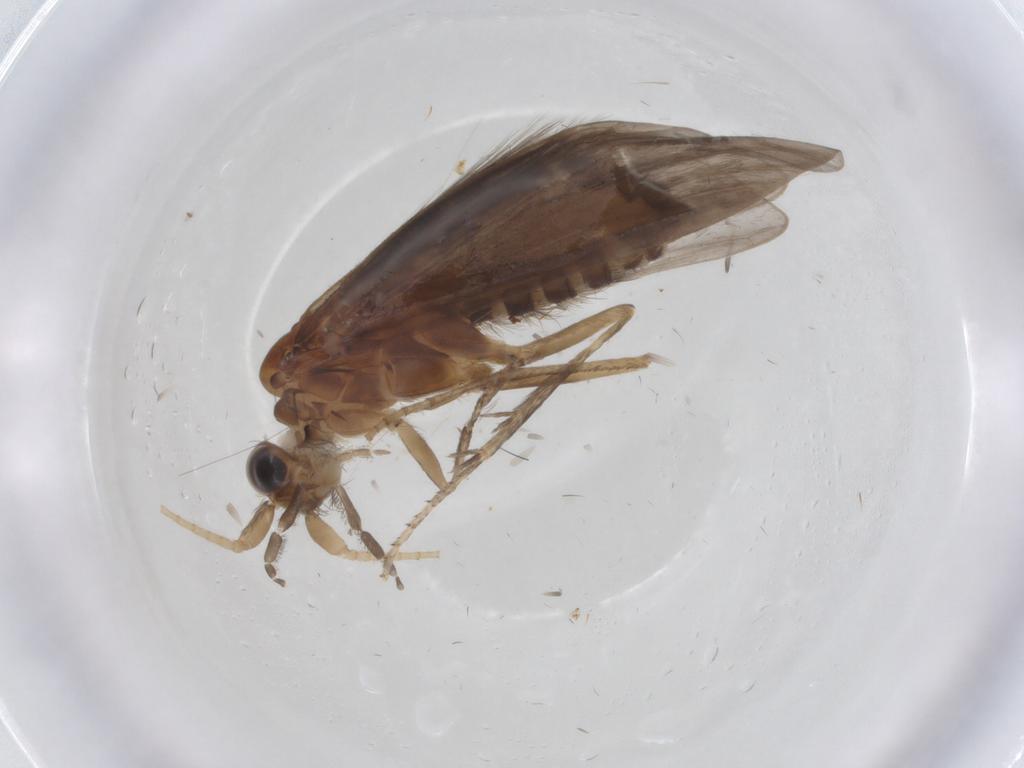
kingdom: Animalia
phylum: Arthropoda
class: Insecta
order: Trichoptera
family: Helicopsychidae
